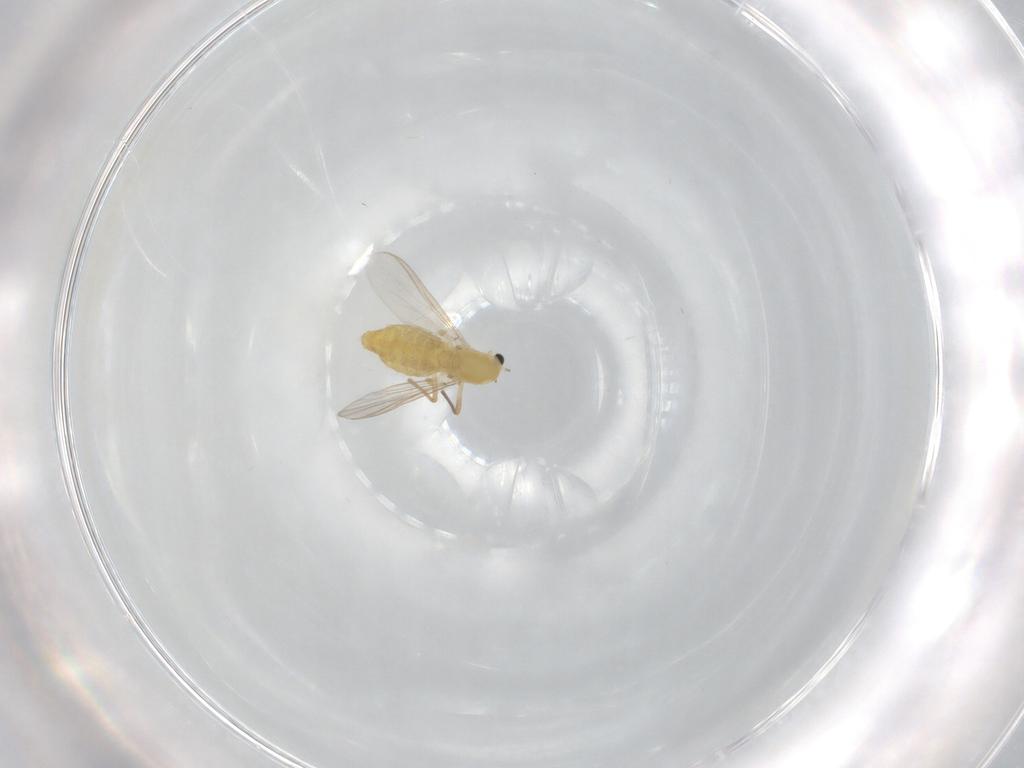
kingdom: Animalia
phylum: Arthropoda
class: Insecta
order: Diptera
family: Chironomidae
